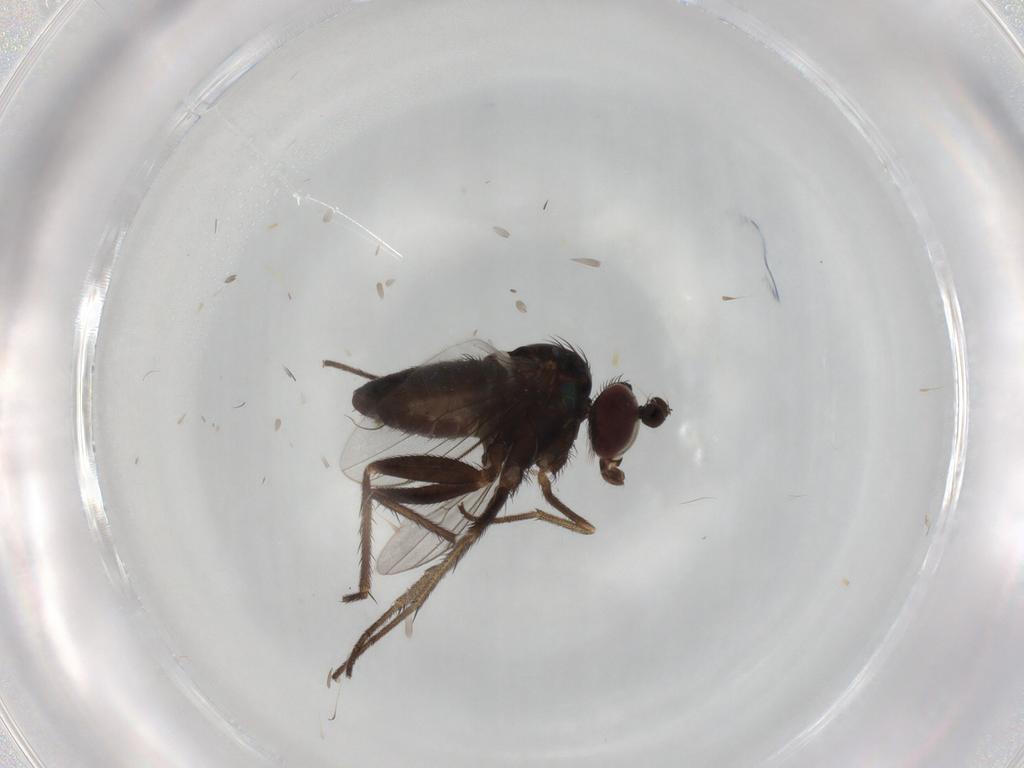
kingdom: Animalia
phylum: Arthropoda
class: Insecta
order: Diptera
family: Dolichopodidae
